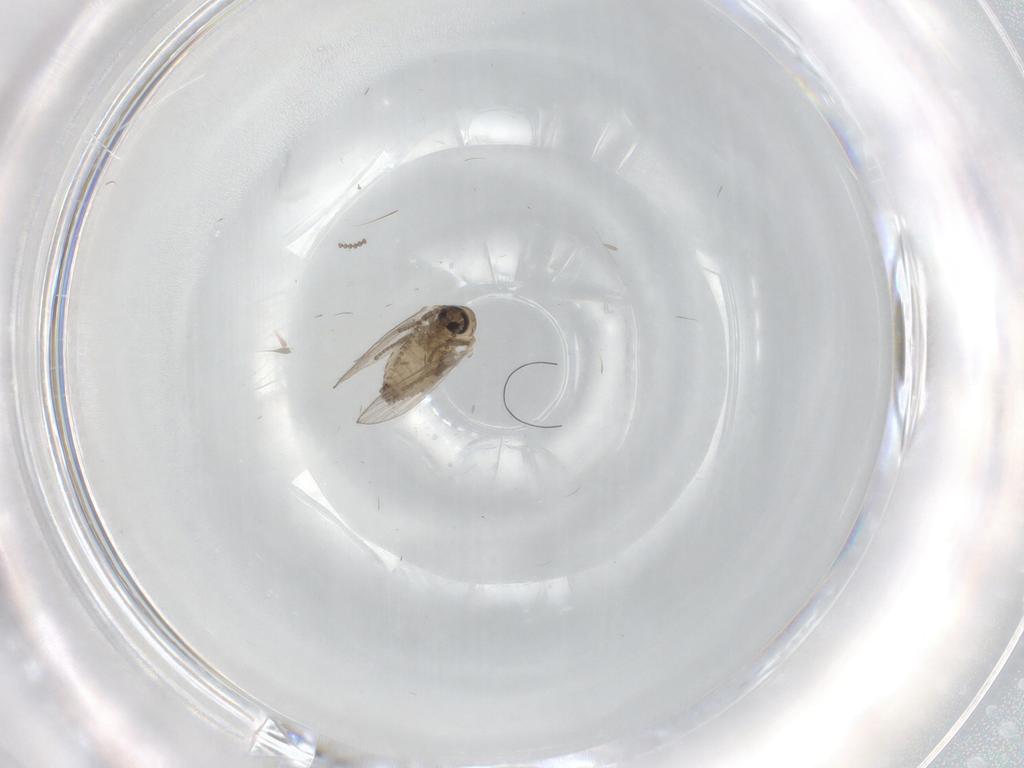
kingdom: Animalia
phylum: Arthropoda
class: Insecta
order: Diptera
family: Psychodidae
